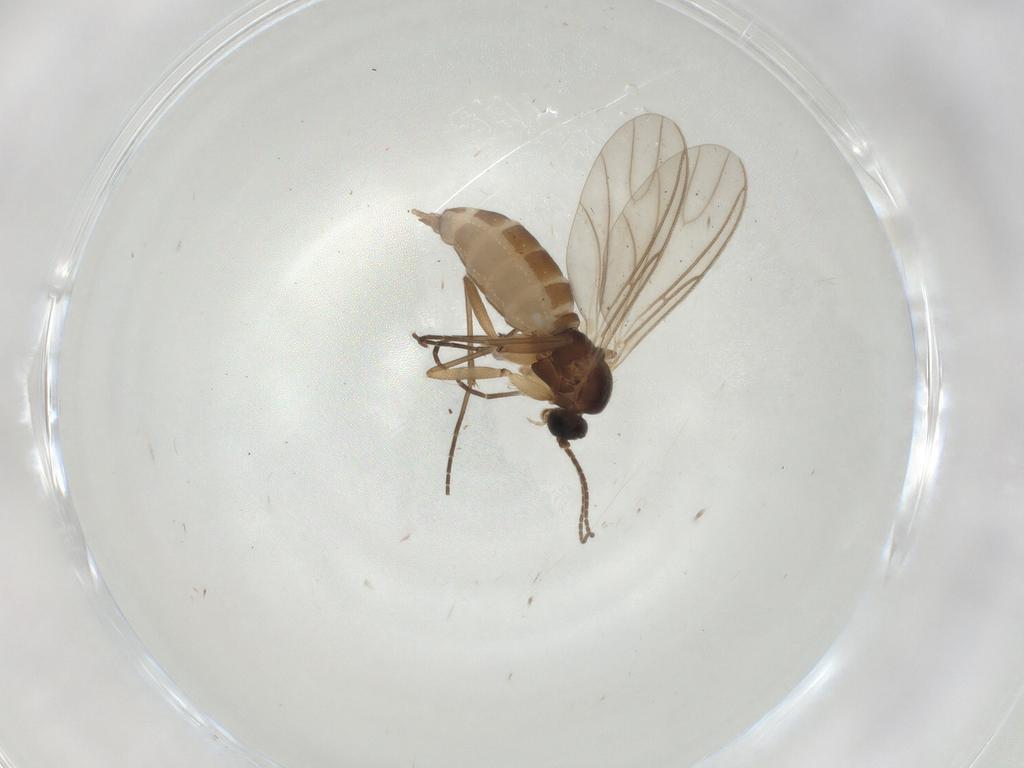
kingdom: Animalia
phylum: Arthropoda
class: Insecta
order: Diptera
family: Sciaridae
